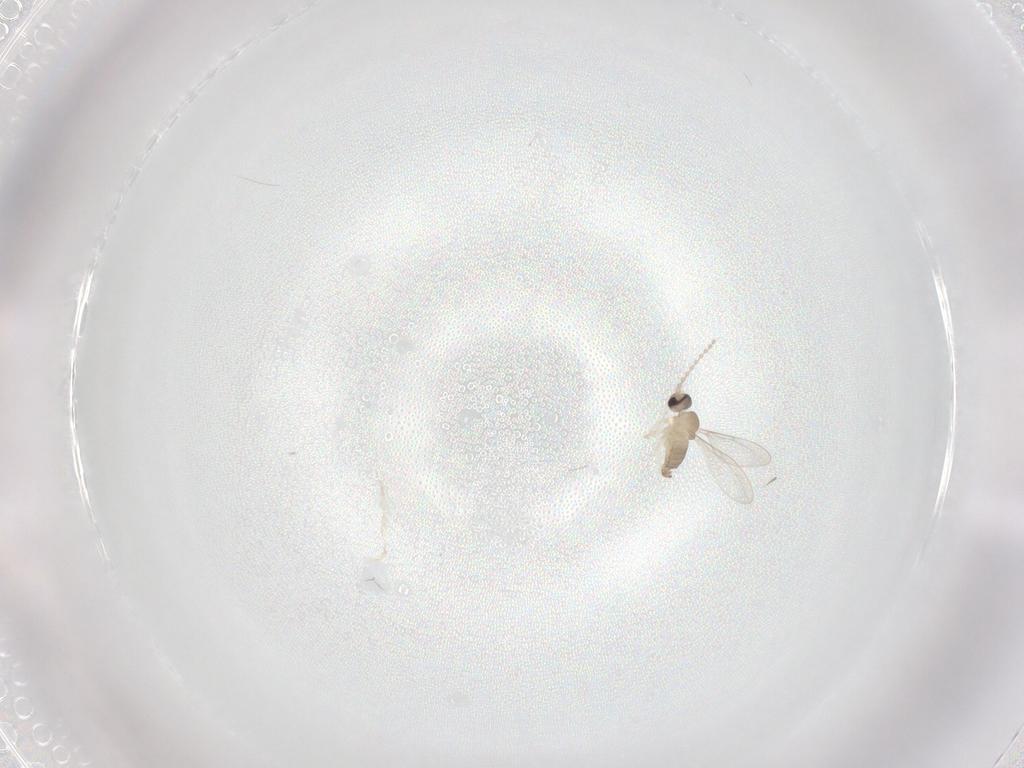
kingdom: Animalia
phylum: Arthropoda
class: Insecta
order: Diptera
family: Cecidomyiidae
